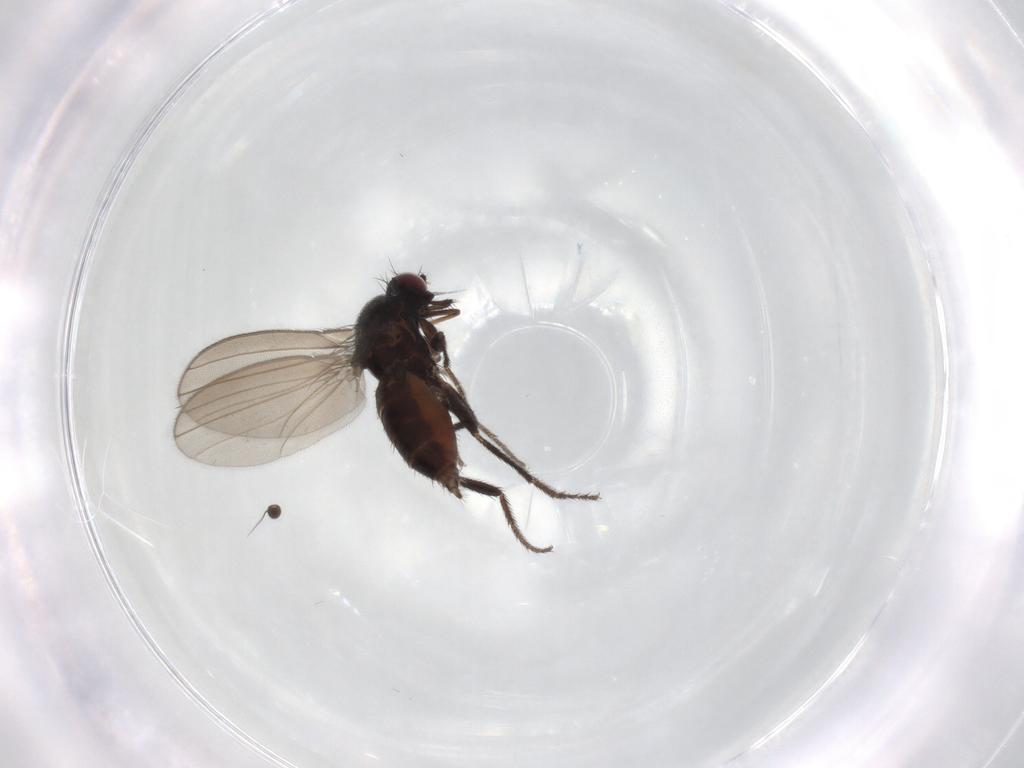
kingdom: Animalia
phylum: Arthropoda
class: Insecta
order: Diptera
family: Milichiidae
